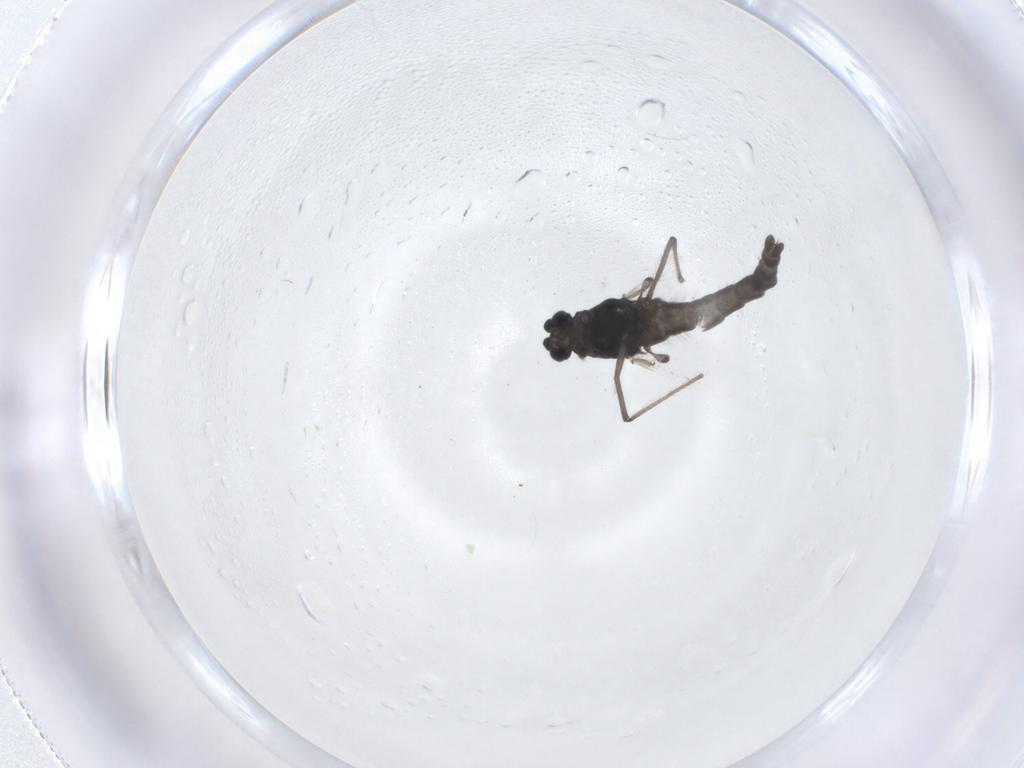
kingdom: Animalia
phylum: Arthropoda
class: Insecta
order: Diptera
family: Chironomidae
